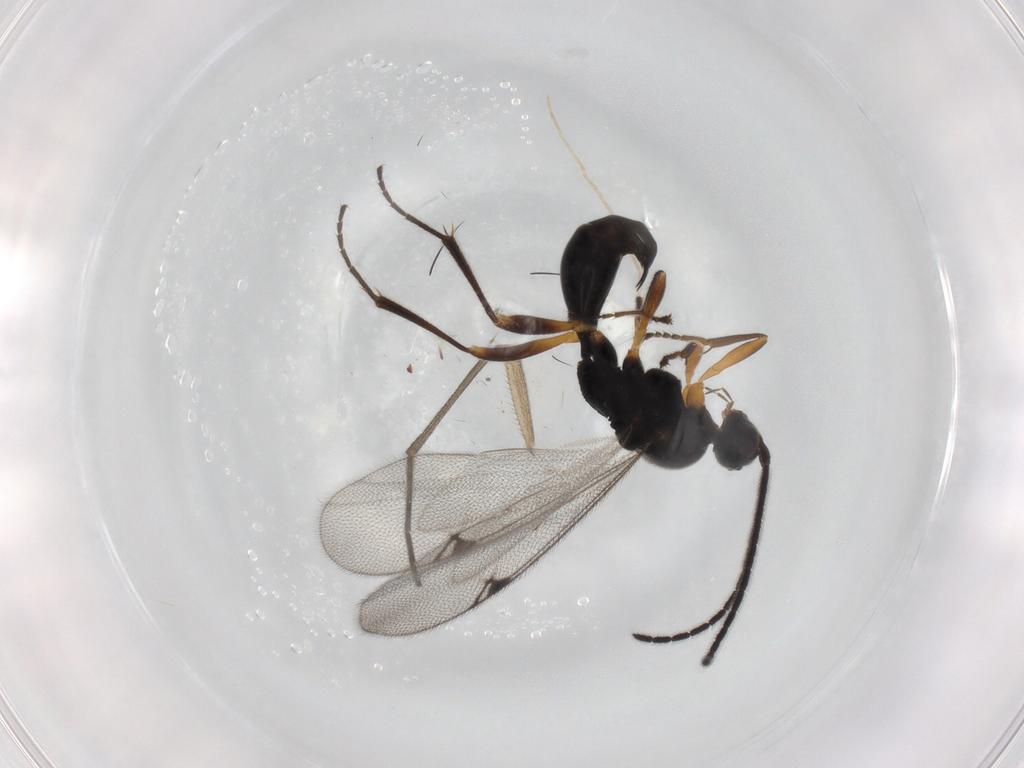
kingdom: Animalia
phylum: Arthropoda
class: Insecta
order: Hymenoptera
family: Proctotrupidae
